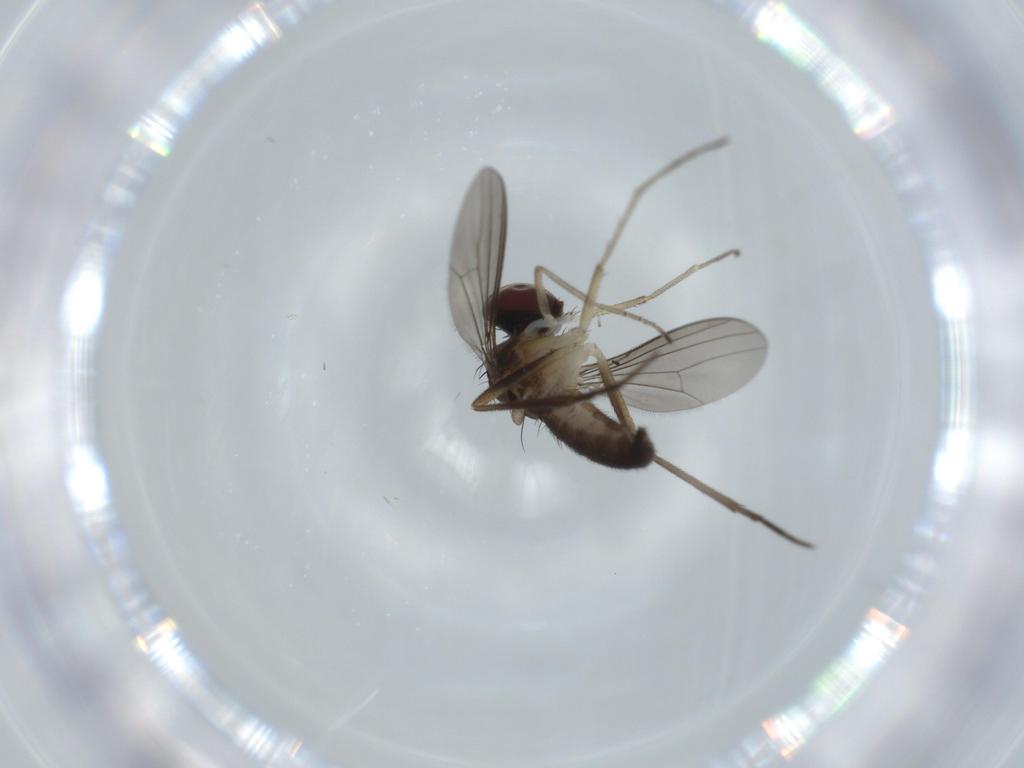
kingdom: Animalia
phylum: Arthropoda
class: Insecta
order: Diptera
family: Dolichopodidae
